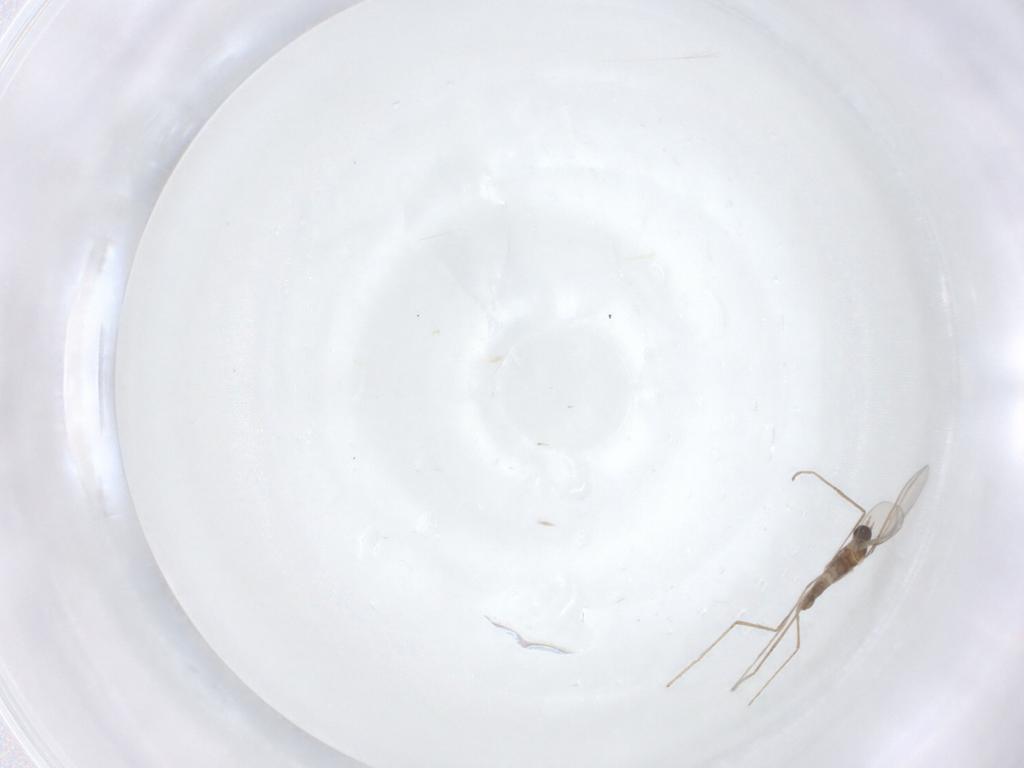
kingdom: Animalia
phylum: Arthropoda
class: Insecta
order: Diptera
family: Cecidomyiidae
